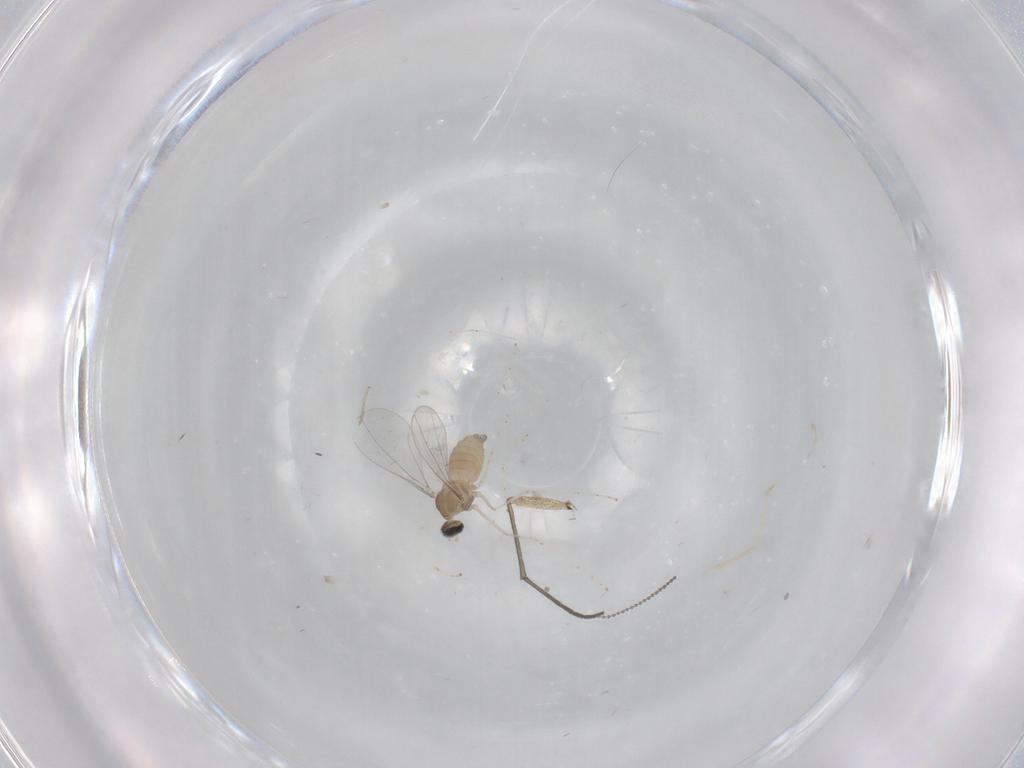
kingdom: Animalia
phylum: Arthropoda
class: Insecta
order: Diptera
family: Cecidomyiidae
